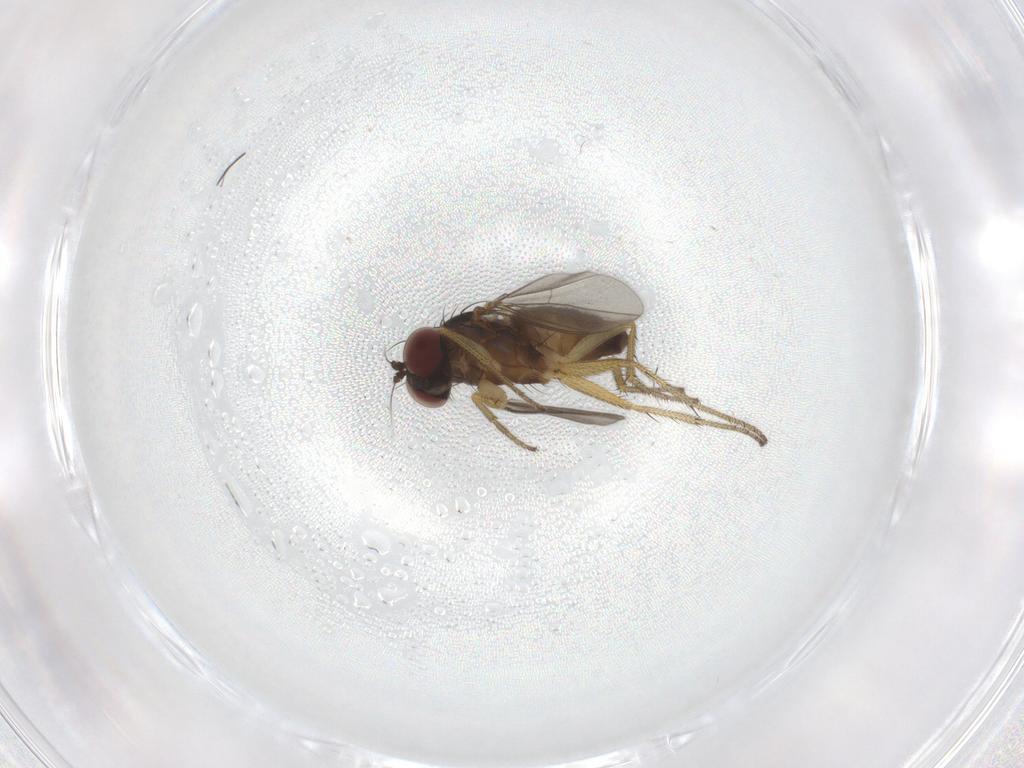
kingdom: Animalia
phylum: Arthropoda
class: Insecta
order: Diptera
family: Dolichopodidae
